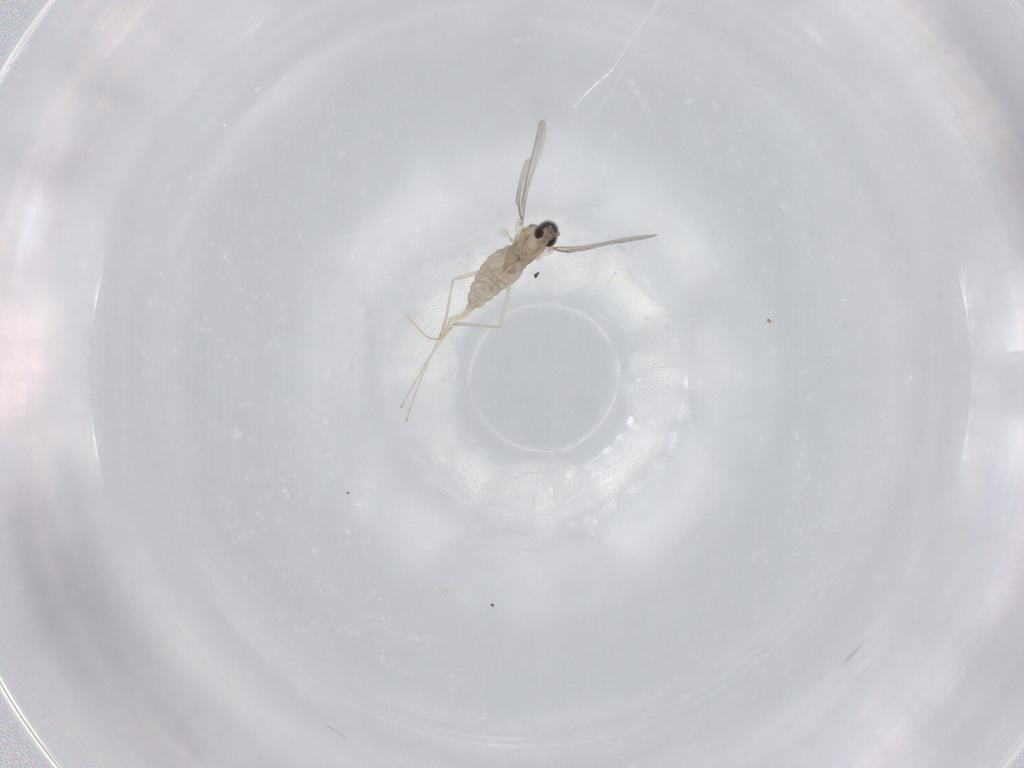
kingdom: Animalia
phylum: Arthropoda
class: Insecta
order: Diptera
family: Cecidomyiidae
